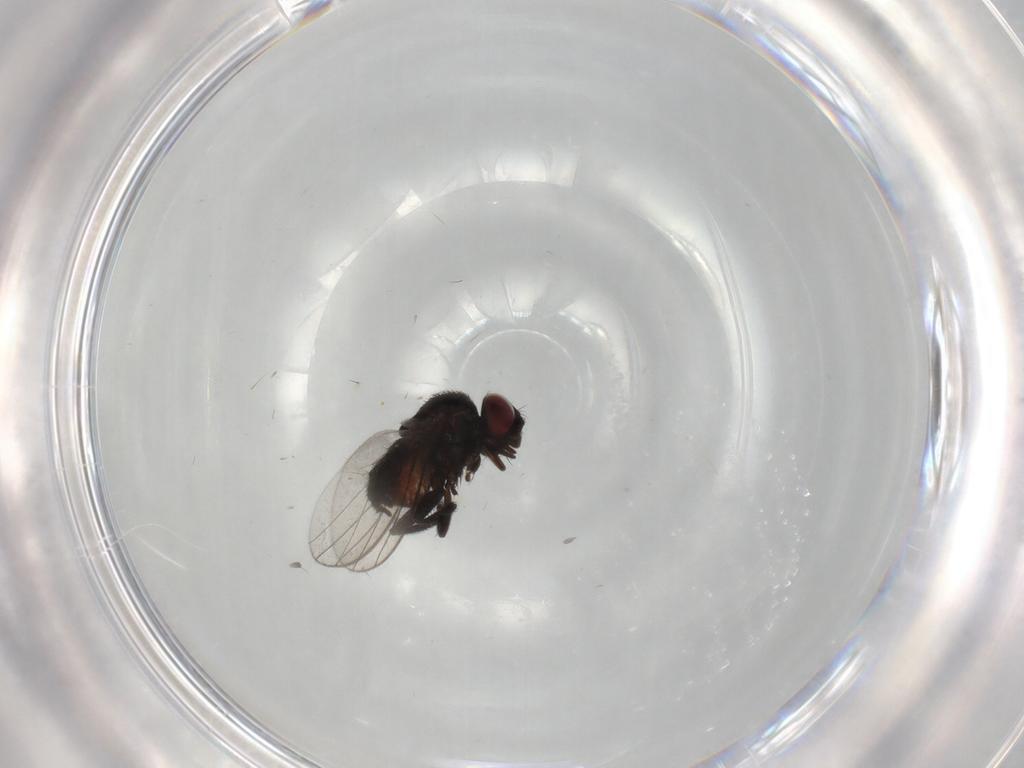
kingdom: Animalia
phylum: Arthropoda
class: Insecta
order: Diptera
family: Milichiidae
